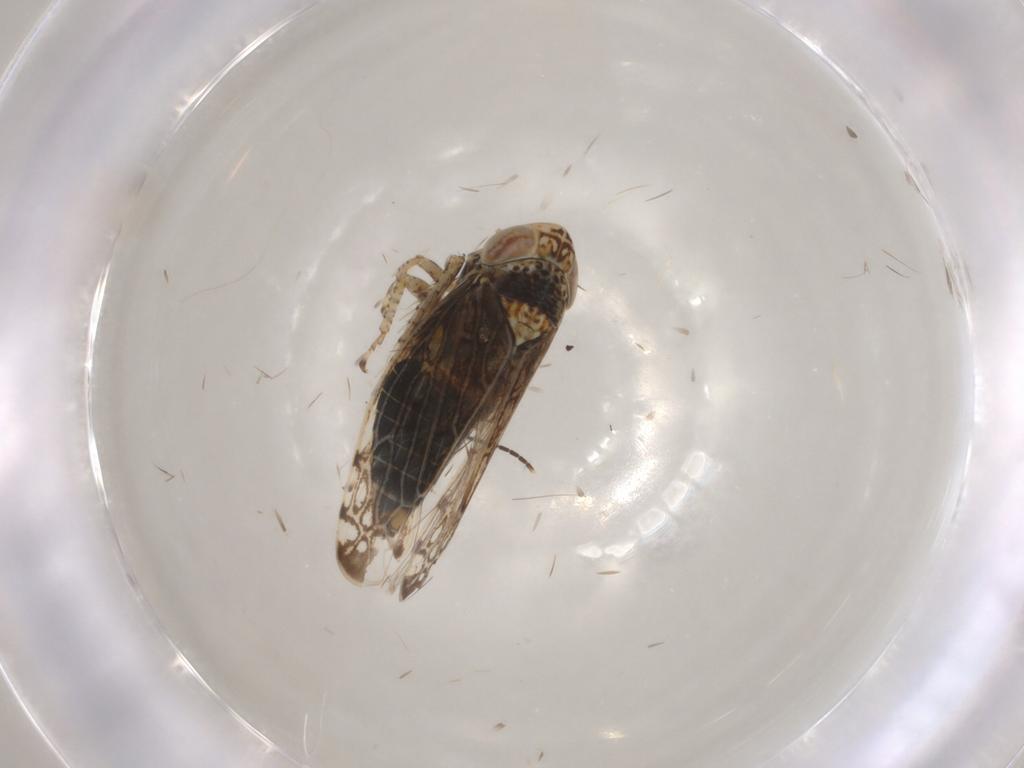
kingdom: Animalia
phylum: Arthropoda
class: Insecta
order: Hemiptera
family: Cicadellidae
